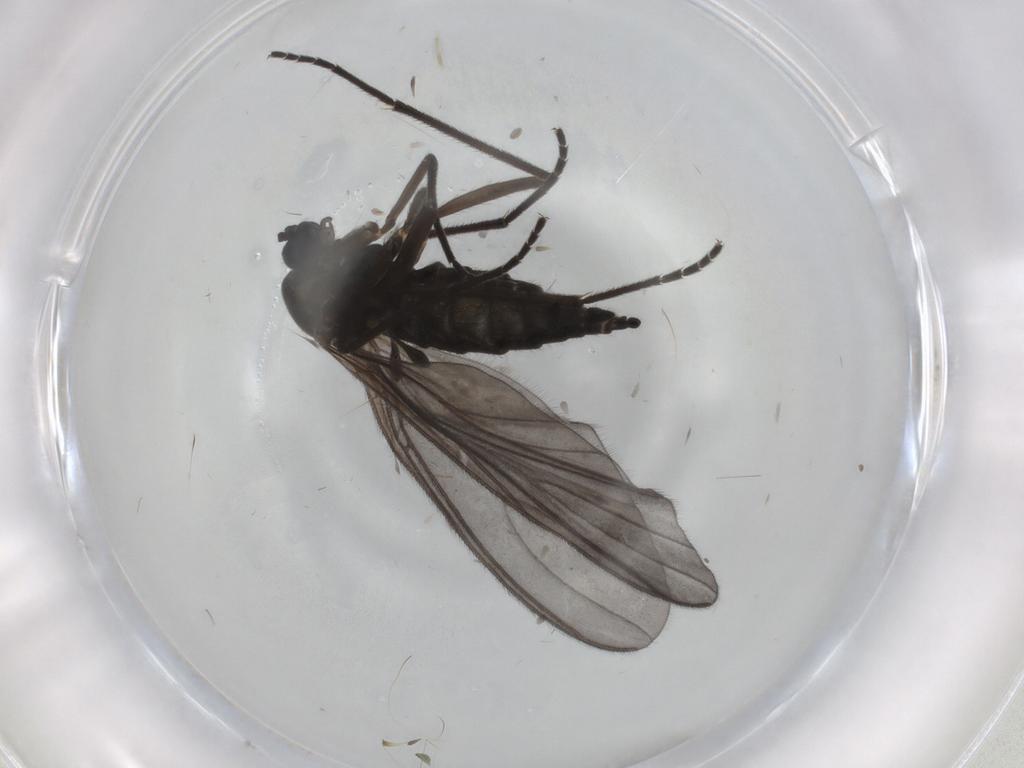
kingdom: Animalia
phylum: Arthropoda
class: Insecta
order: Diptera
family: Sciaridae
